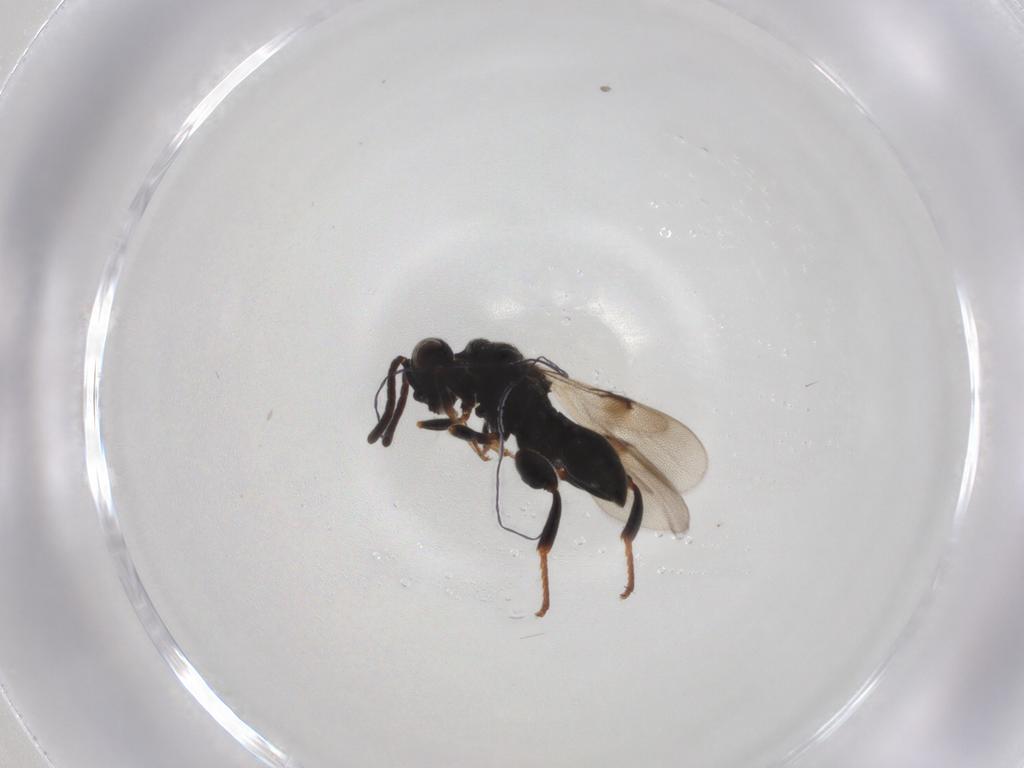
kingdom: Animalia
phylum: Arthropoda
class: Insecta
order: Hymenoptera
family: Chalcididae
